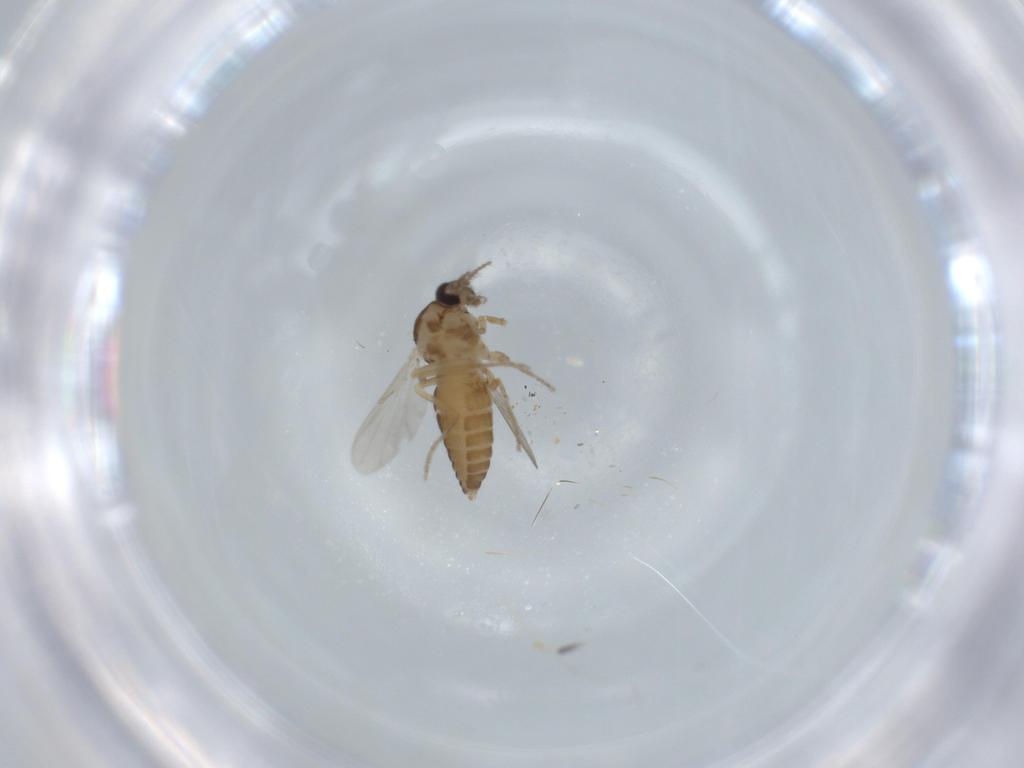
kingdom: Animalia
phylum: Arthropoda
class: Insecta
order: Diptera
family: Ceratopogonidae
